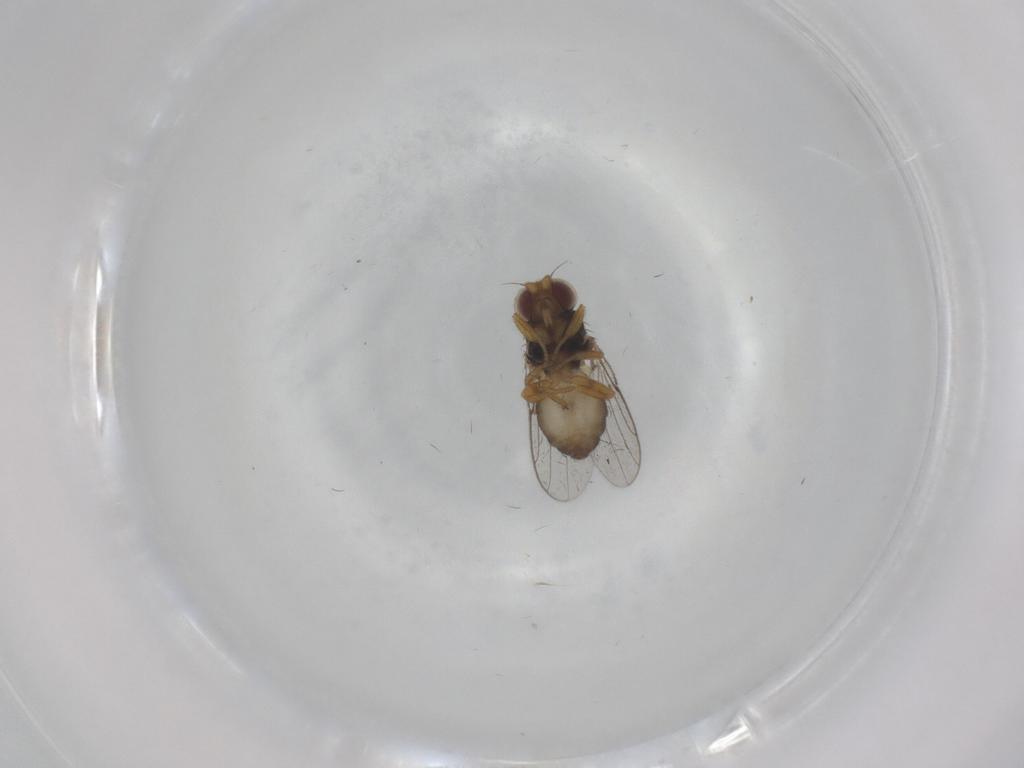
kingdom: Animalia
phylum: Arthropoda
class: Insecta
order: Diptera
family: Chloropidae
